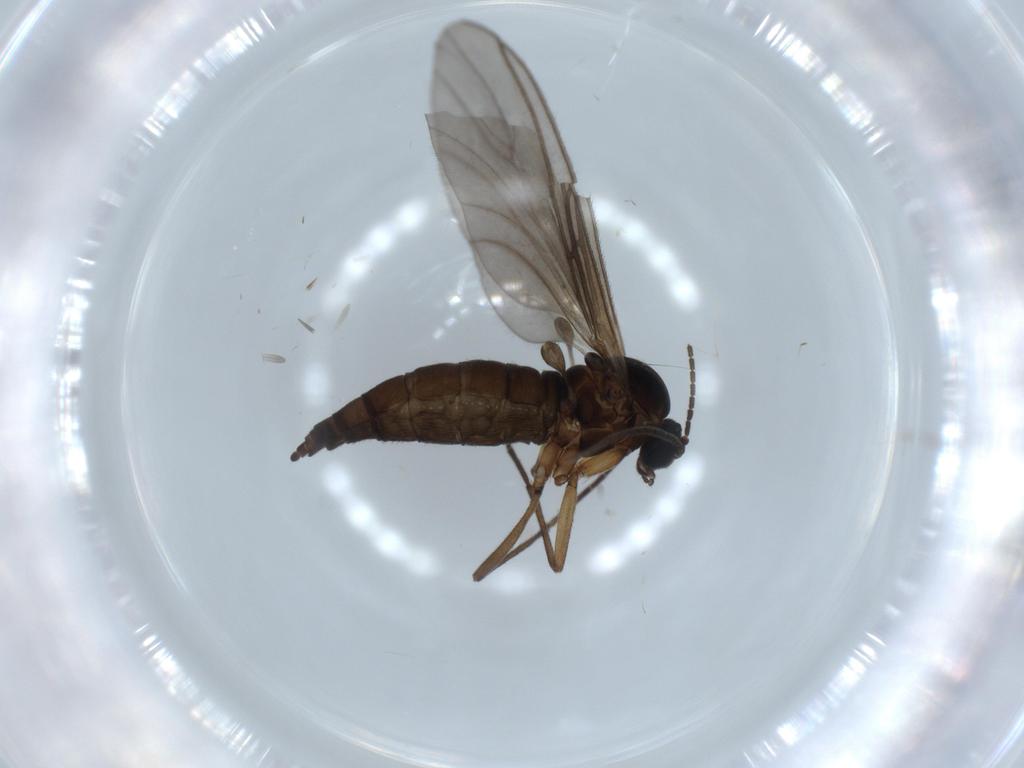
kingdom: Animalia
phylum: Arthropoda
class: Insecta
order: Diptera
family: Sciaridae
